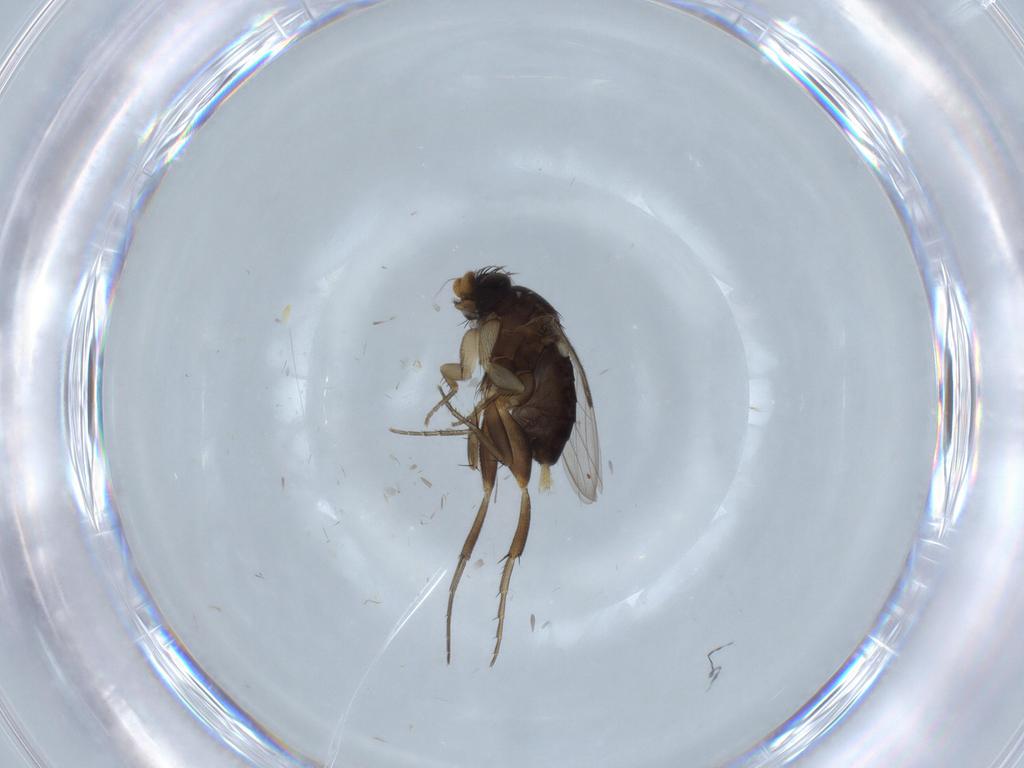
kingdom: Animalia
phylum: Arthropoda
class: Insecta
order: Diptera
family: Phoridae
